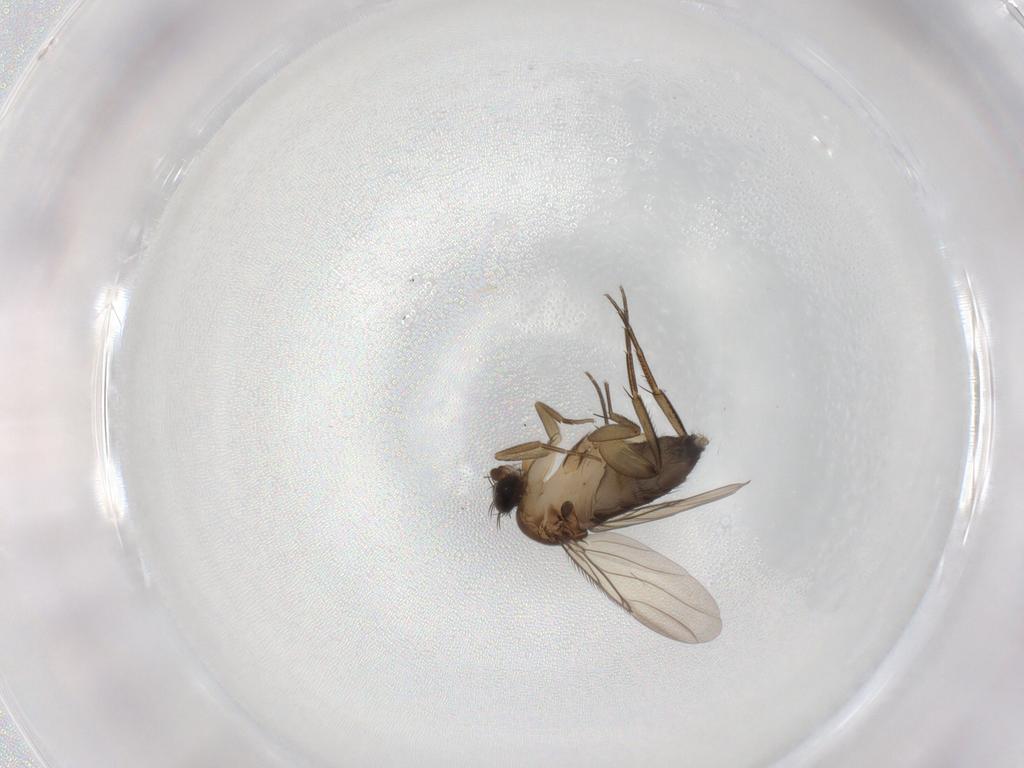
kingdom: Animalia
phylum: Arthropoda
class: Insecta
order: Diptera
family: Phoridae
